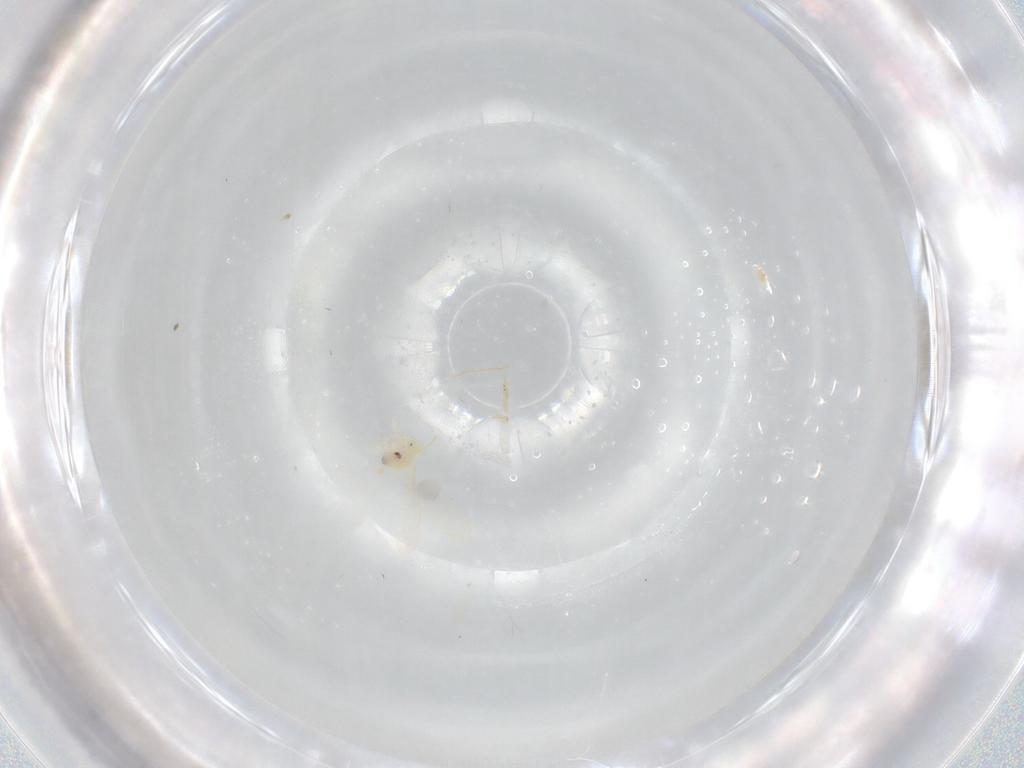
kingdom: Animalia
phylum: Arthropoda
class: Insecta
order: Hemiptera
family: Aleyrodidae
